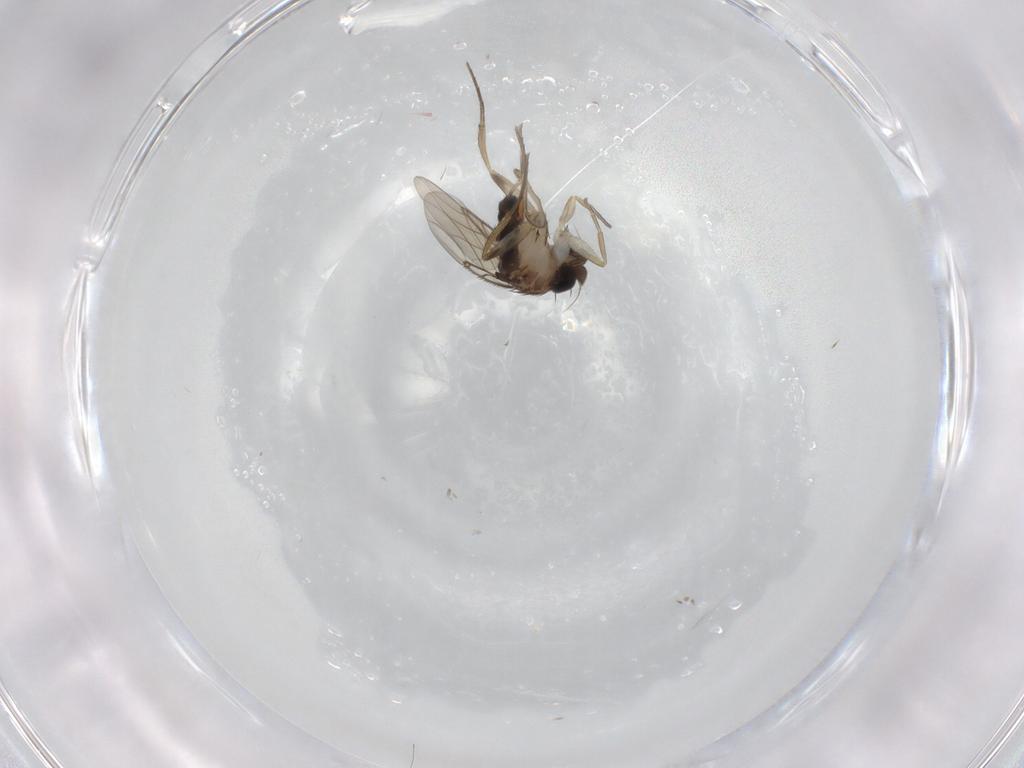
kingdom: Animalia
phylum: Arthropoda
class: Insecta
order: Diptera
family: Phoridae
